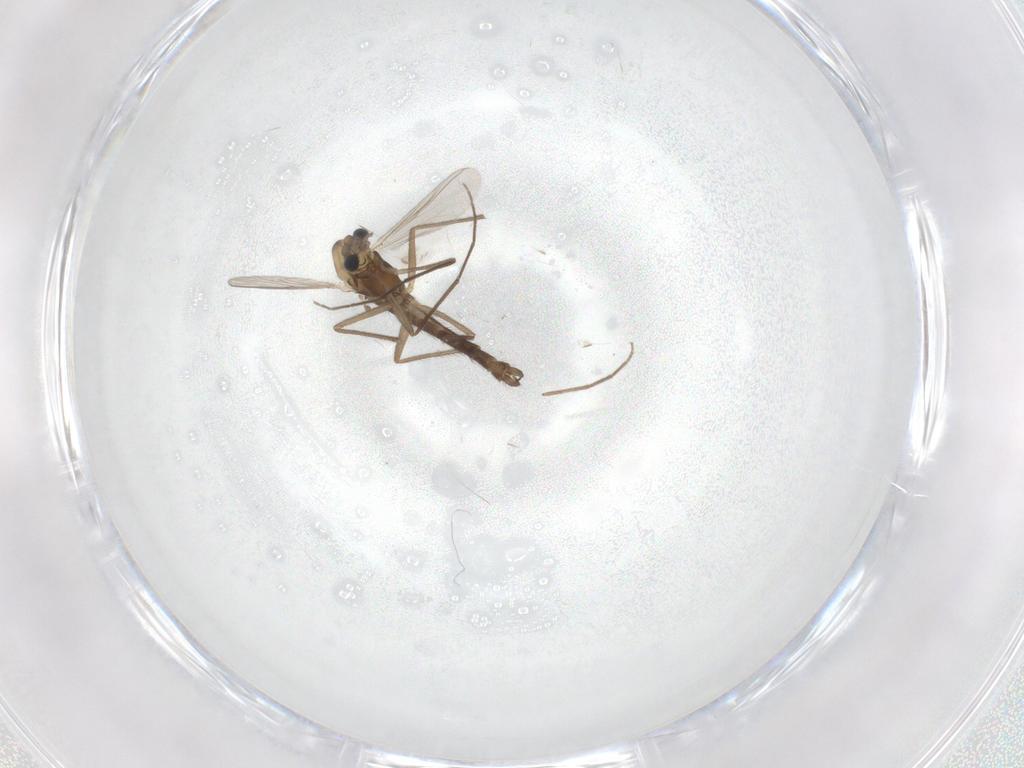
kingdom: Animalia
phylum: Arthropoda
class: Insecta
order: Diptera
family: Chironomidae
